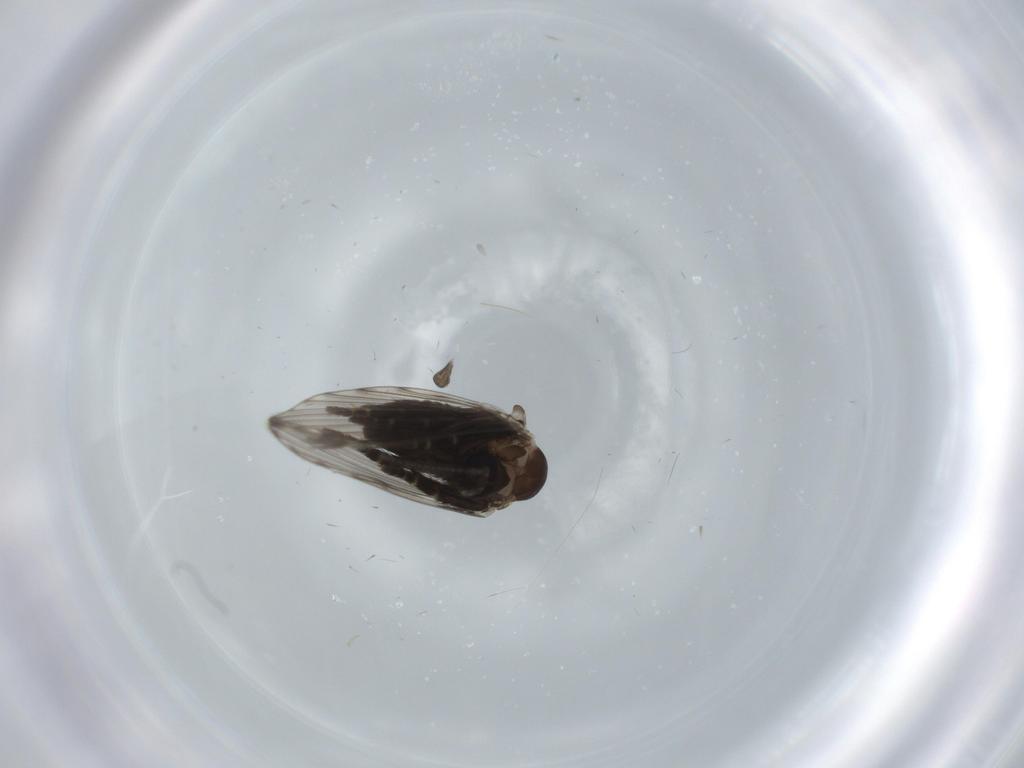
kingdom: Animalia
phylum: Arthropoda
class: Insecta
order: Diptera
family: Psychodidae
